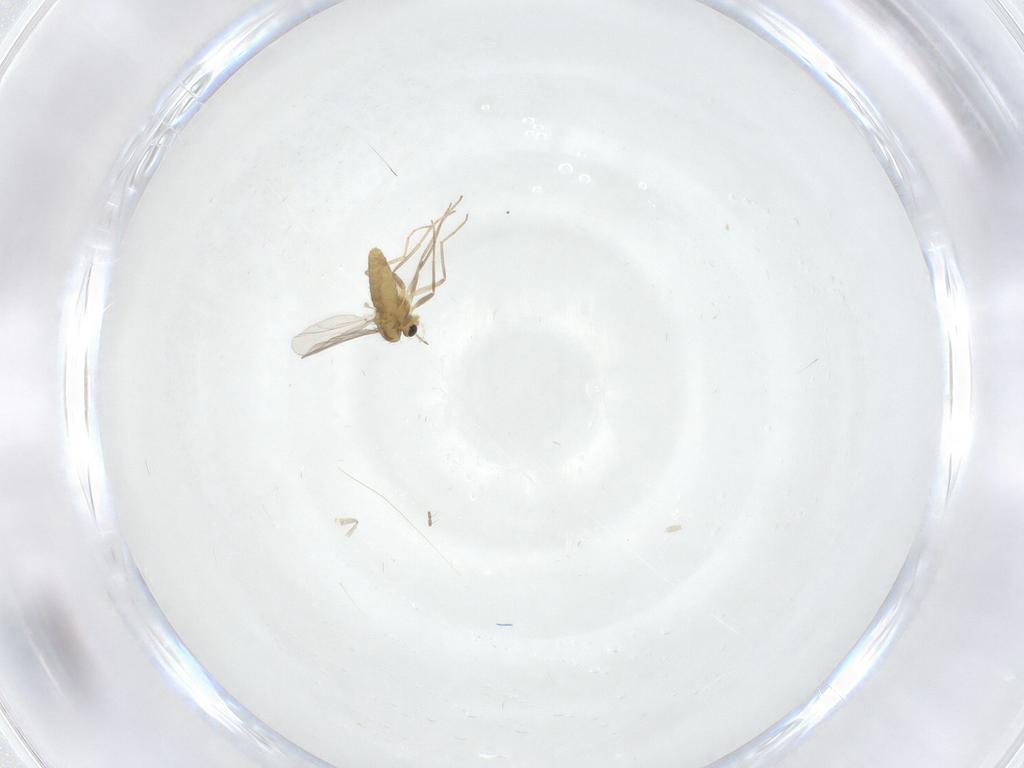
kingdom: Animalia
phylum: Arthropoda
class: Insecta
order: Diptera
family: Chironomidae
